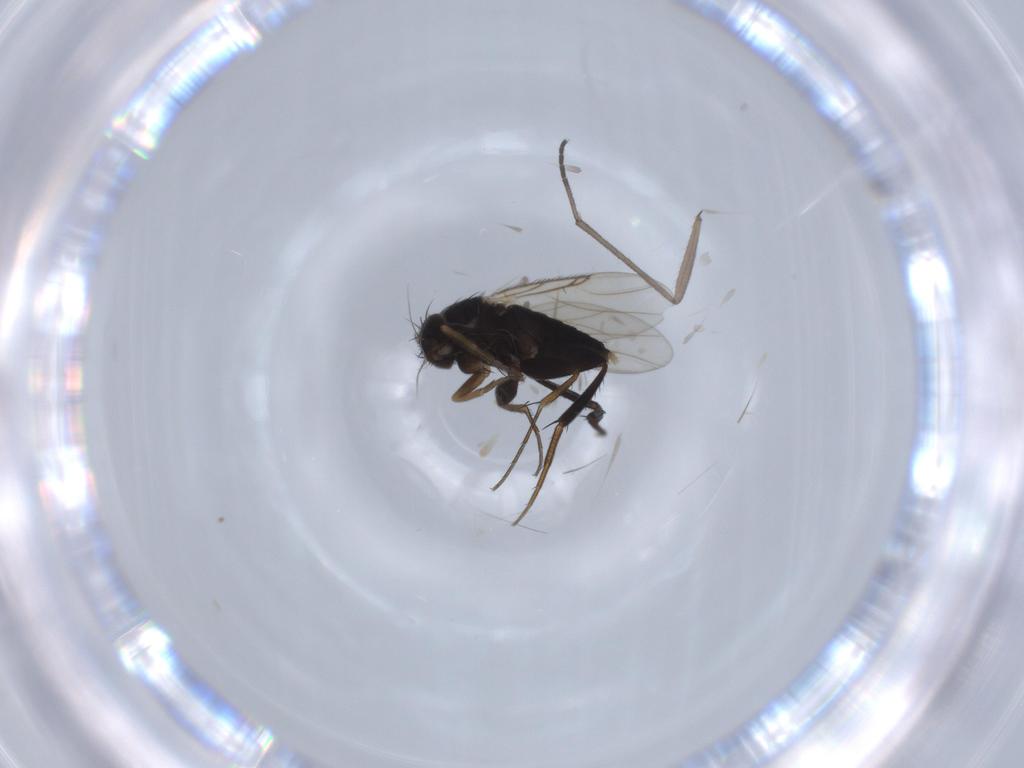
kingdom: Animalia
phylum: Arthropoda
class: Insecta
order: Diptera
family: Phoridae
